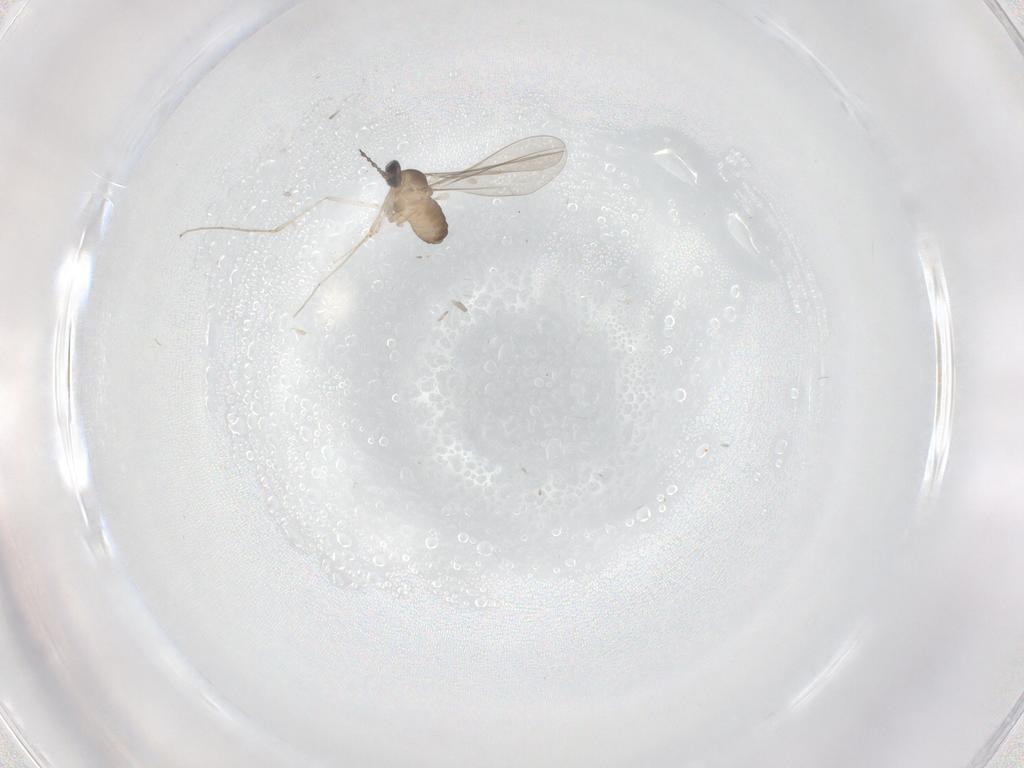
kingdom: Animalia
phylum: Arthropoda
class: Insecta
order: Diptera
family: Cecidomyiidae
